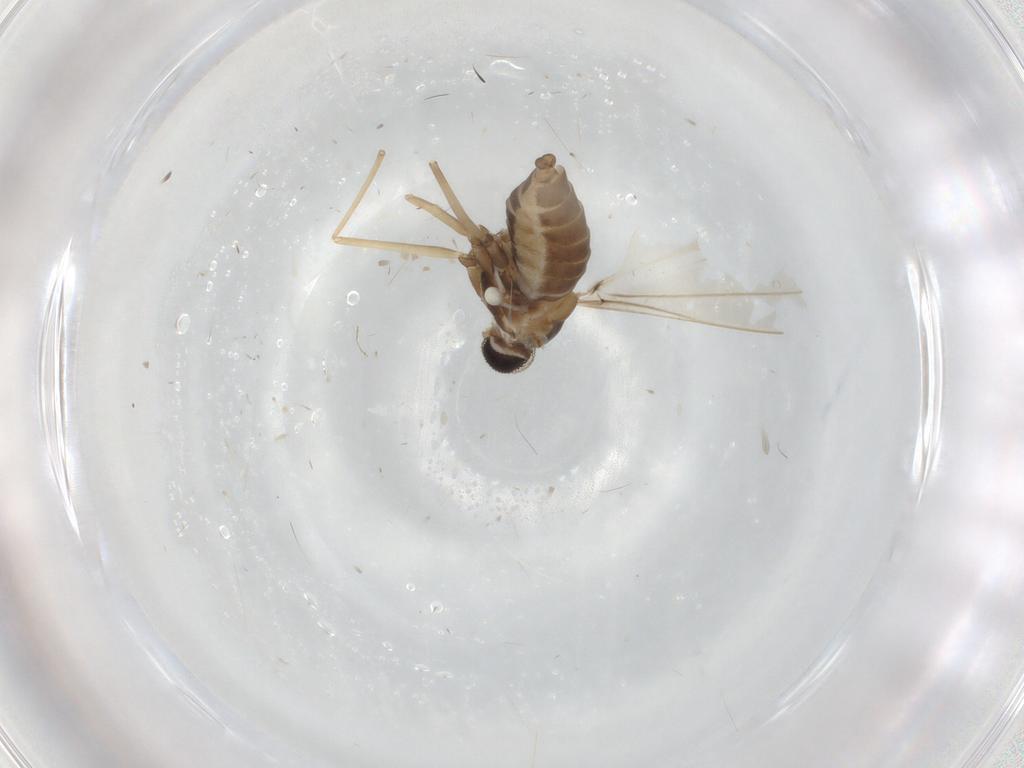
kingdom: Animalia
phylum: Arthropoda
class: Insecta
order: Diptera
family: Cecidomyiidae
